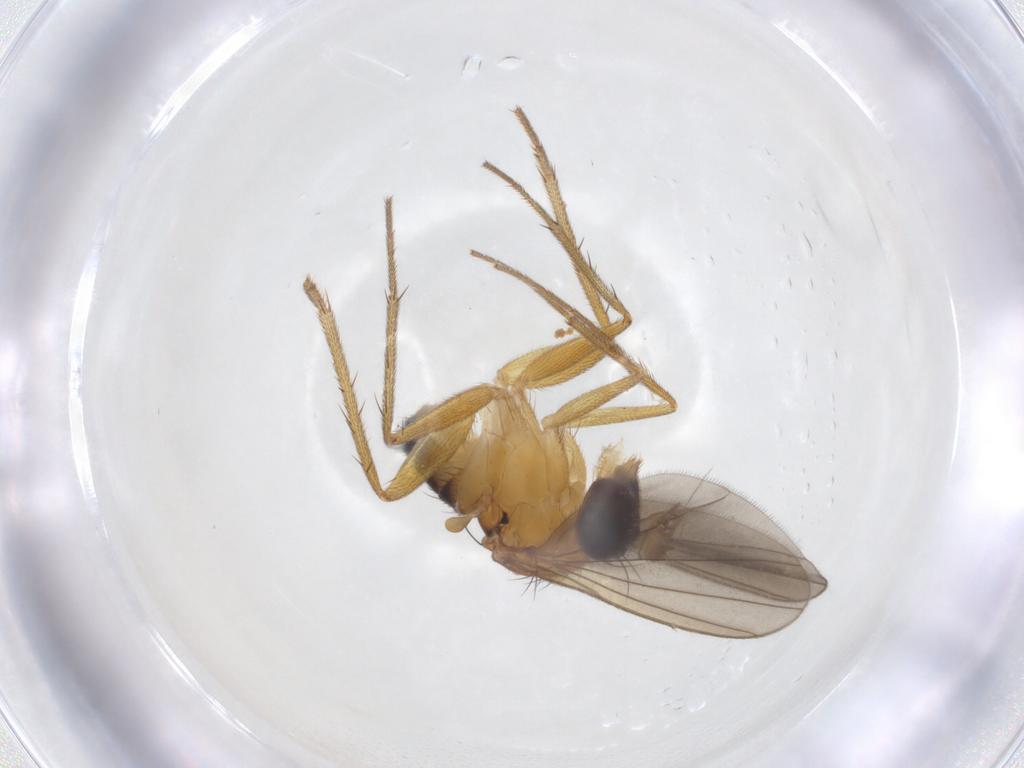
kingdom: Animalia
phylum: Arthropoda
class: Insecta
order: Diptera
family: Dolichopodidae
